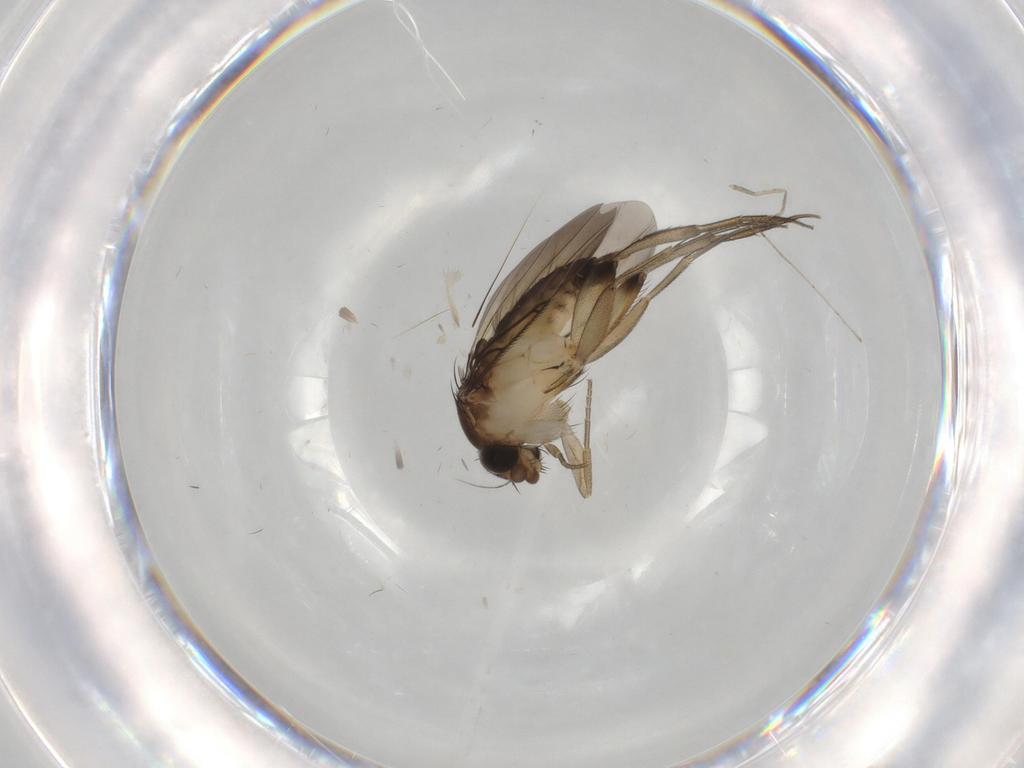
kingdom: Animalia
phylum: Arthropoda
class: Insecta
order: Diptera
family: Cecidomyiidae
